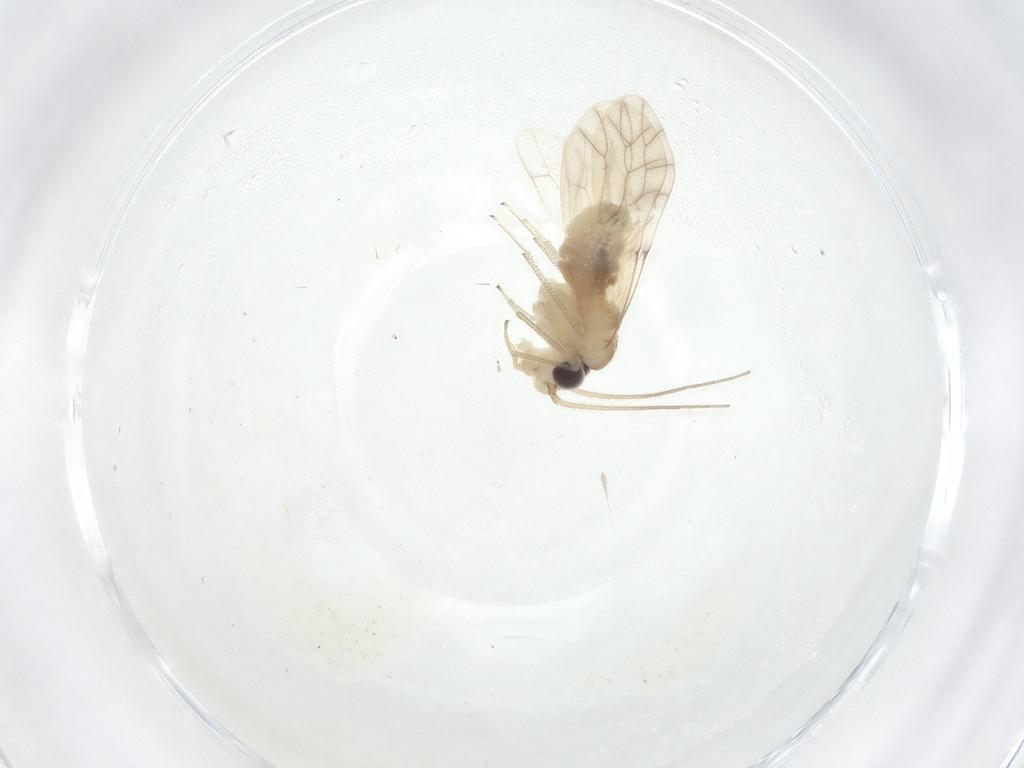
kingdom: Animalia
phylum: Arthropoda
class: Insecta
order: Psocodea
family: Caeciliusidae
